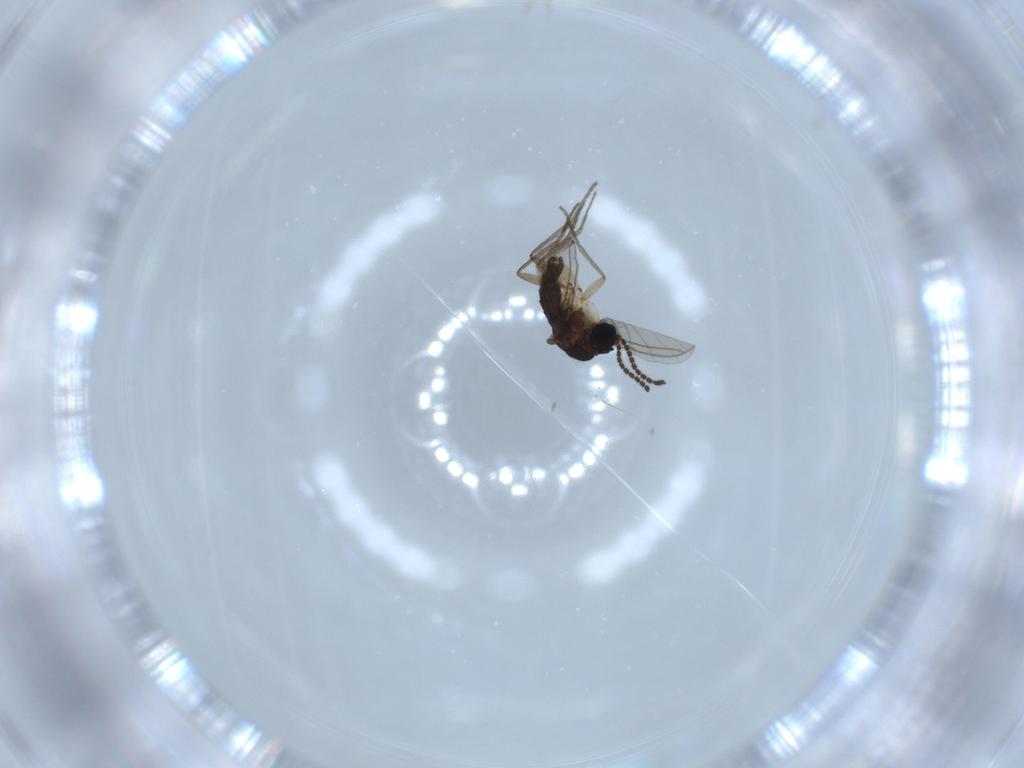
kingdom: Animalia
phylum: Arthropoda
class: Insecta
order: Diptera
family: Sciaridae
